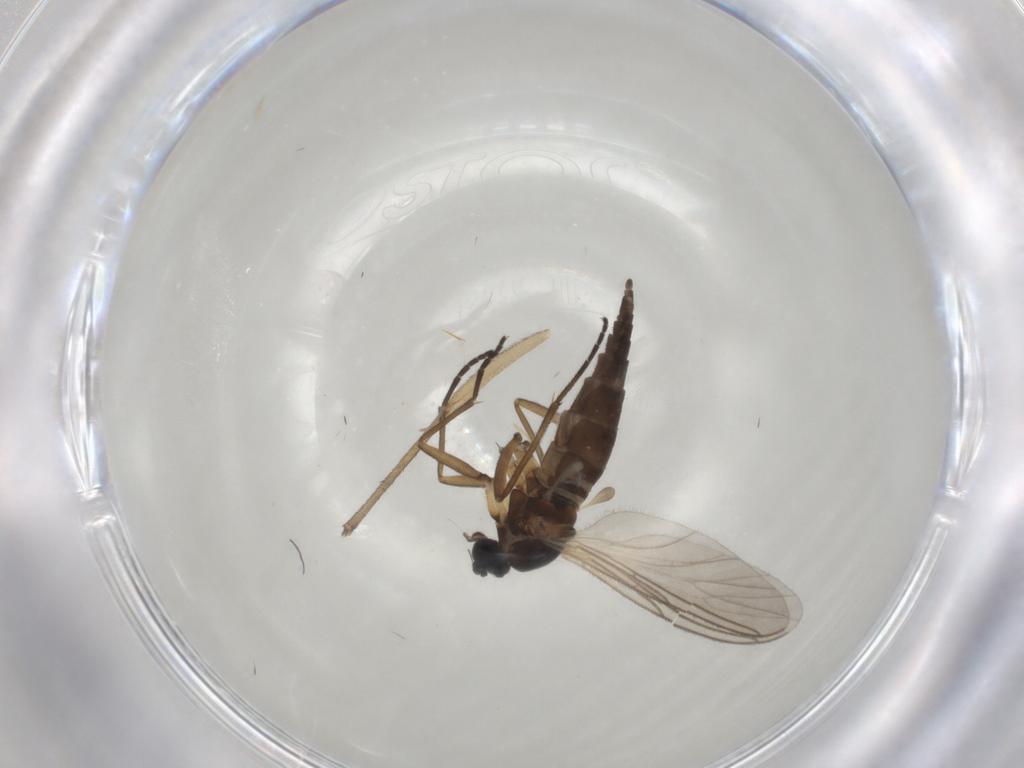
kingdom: Animalia
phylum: Arthropoda
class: Insecta
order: Diptera
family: Sciaridae
